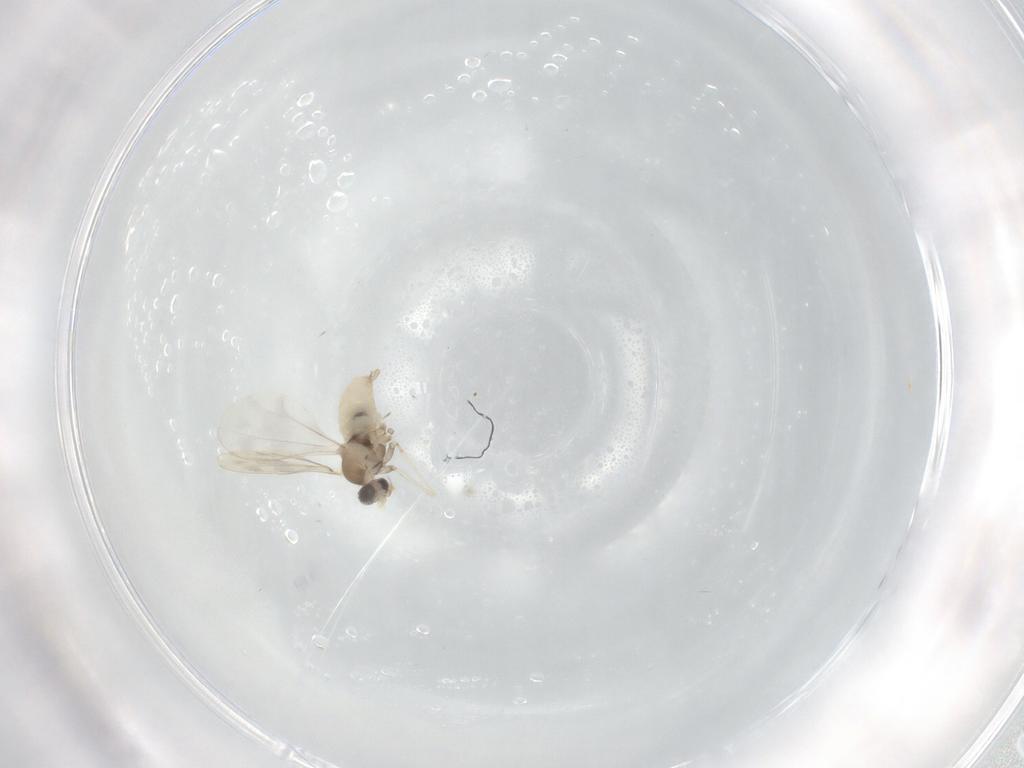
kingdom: Animalia
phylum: Arthropoda
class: Insecta
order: Diptera
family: Cecidomyiidae
